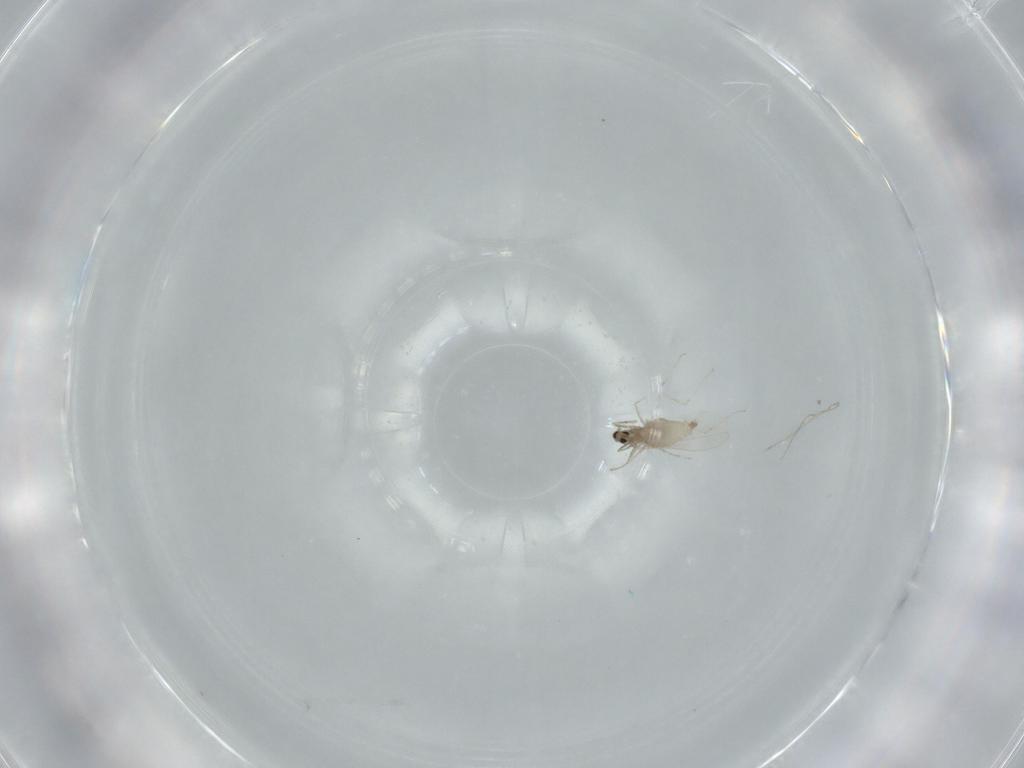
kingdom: Animalia
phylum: Arthropoda
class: Insecta
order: Diptera
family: Cecidomyiidae
